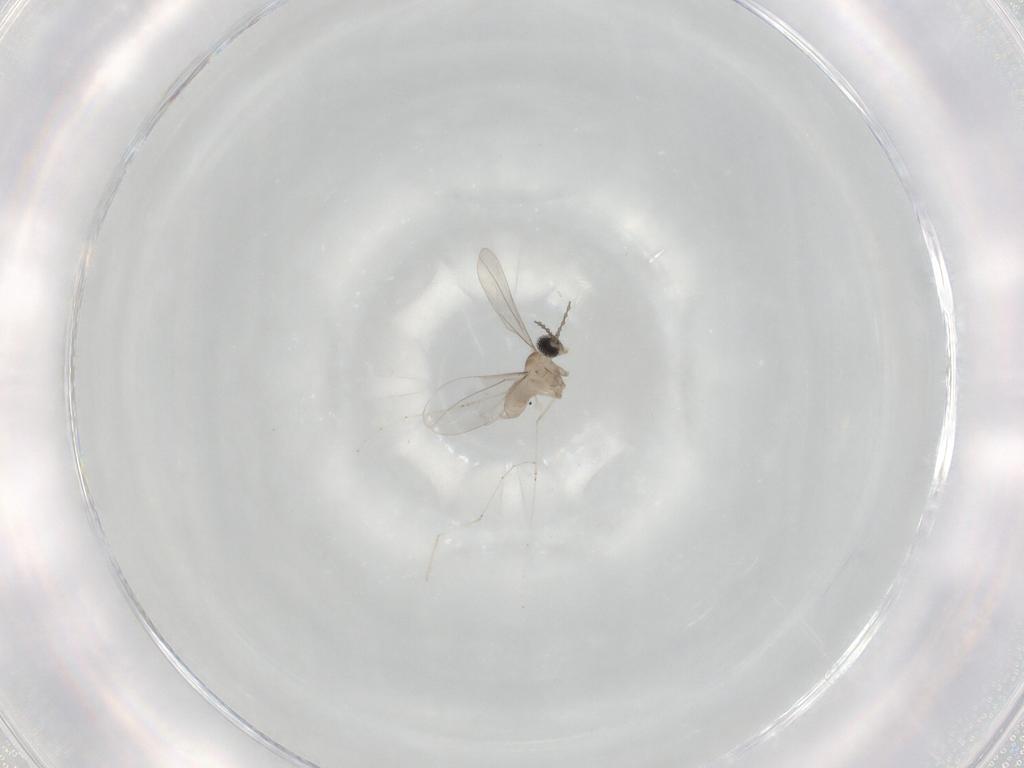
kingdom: Animalia
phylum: Arthropoda
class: Insecta
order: Diptera
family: Cecidomyiidae
